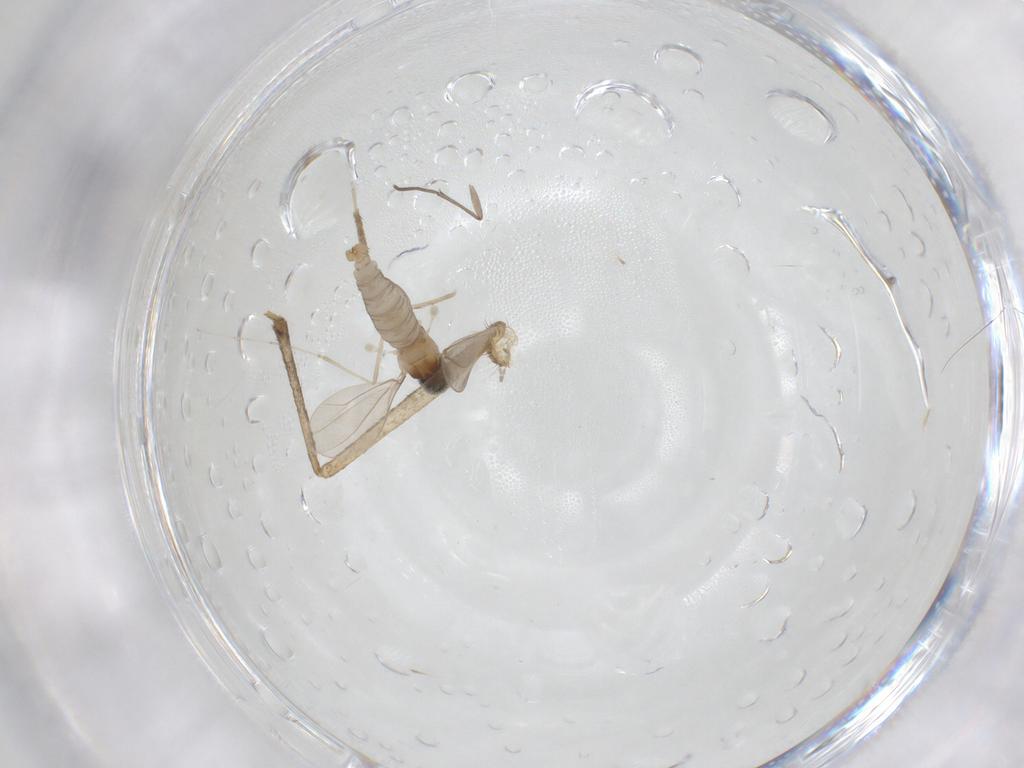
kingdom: Animalia
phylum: Arthropoda
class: Insecta
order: Diptera
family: Cecidomyiidae
